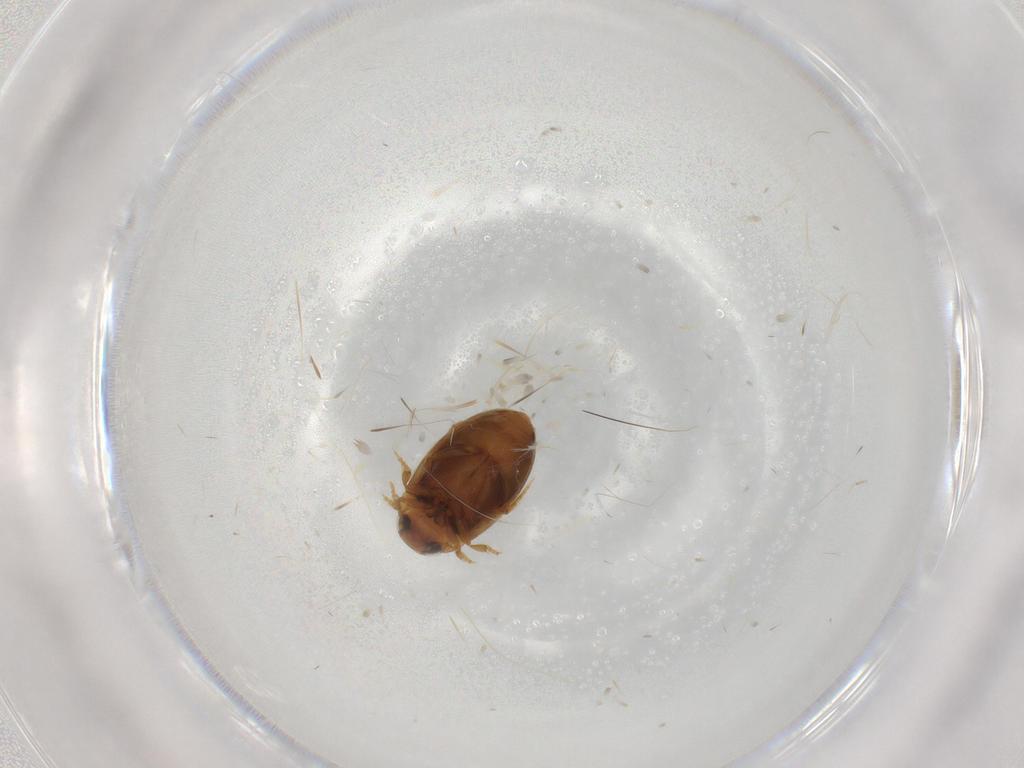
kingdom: Animalia
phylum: Arthropoda
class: Insecta
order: Coleoptera
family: Dytiscidae
